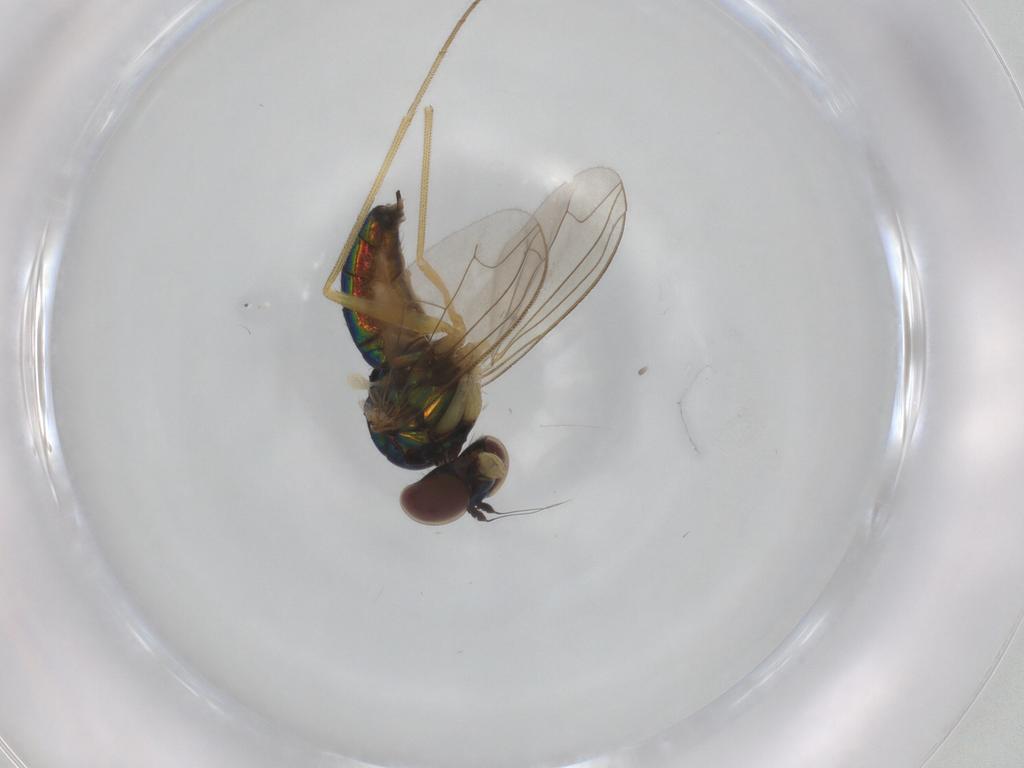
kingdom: Animalia
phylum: Arthropoda
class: Insecta
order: Diptera
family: Dolichopodidae
